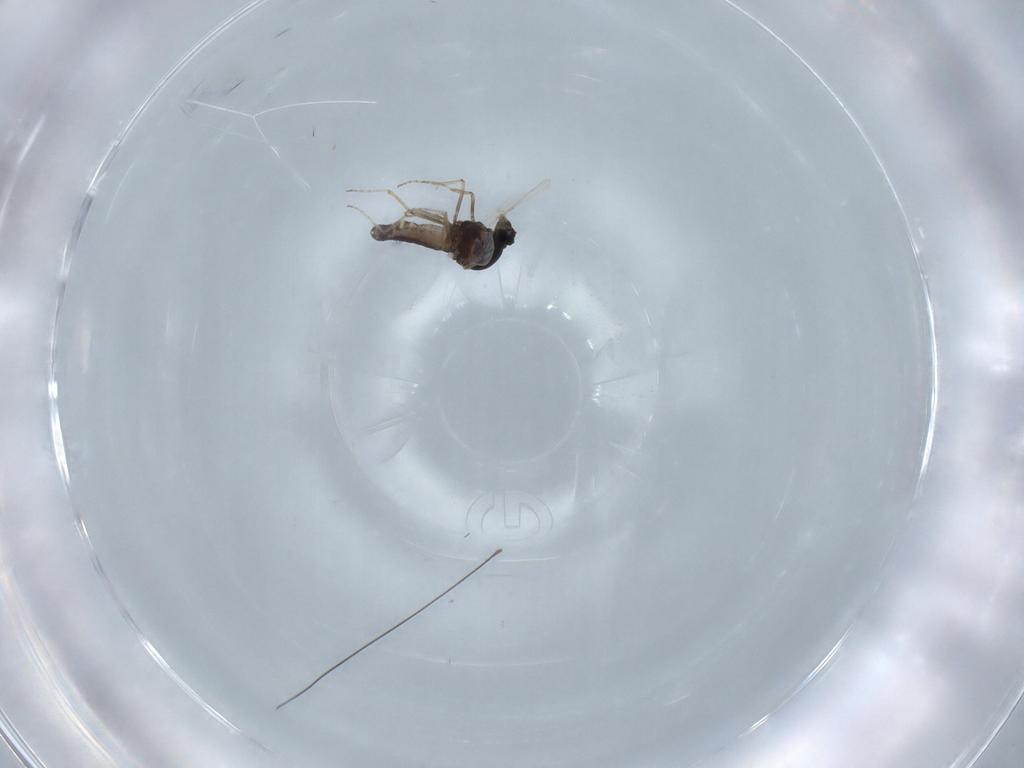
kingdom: Animalia
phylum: Arthropoda
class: Insecta
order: Diptera
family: Ceratopogonidae
